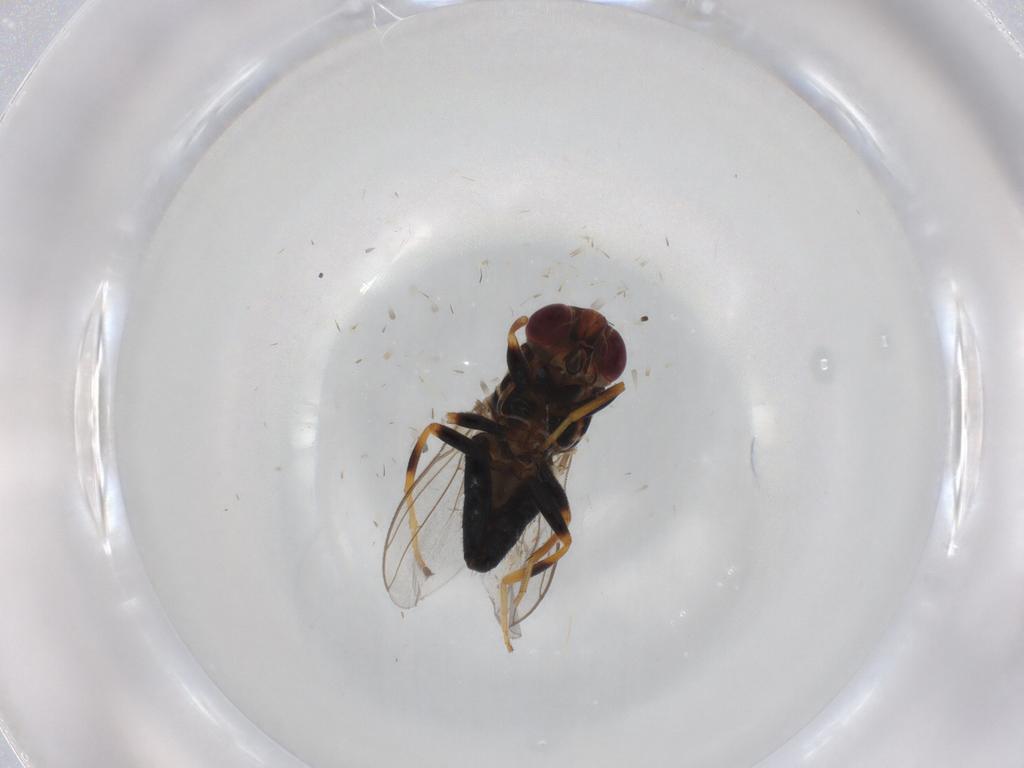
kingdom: Animalia
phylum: Arthropoda
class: Insecta
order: Diptera
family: Chloropidae
